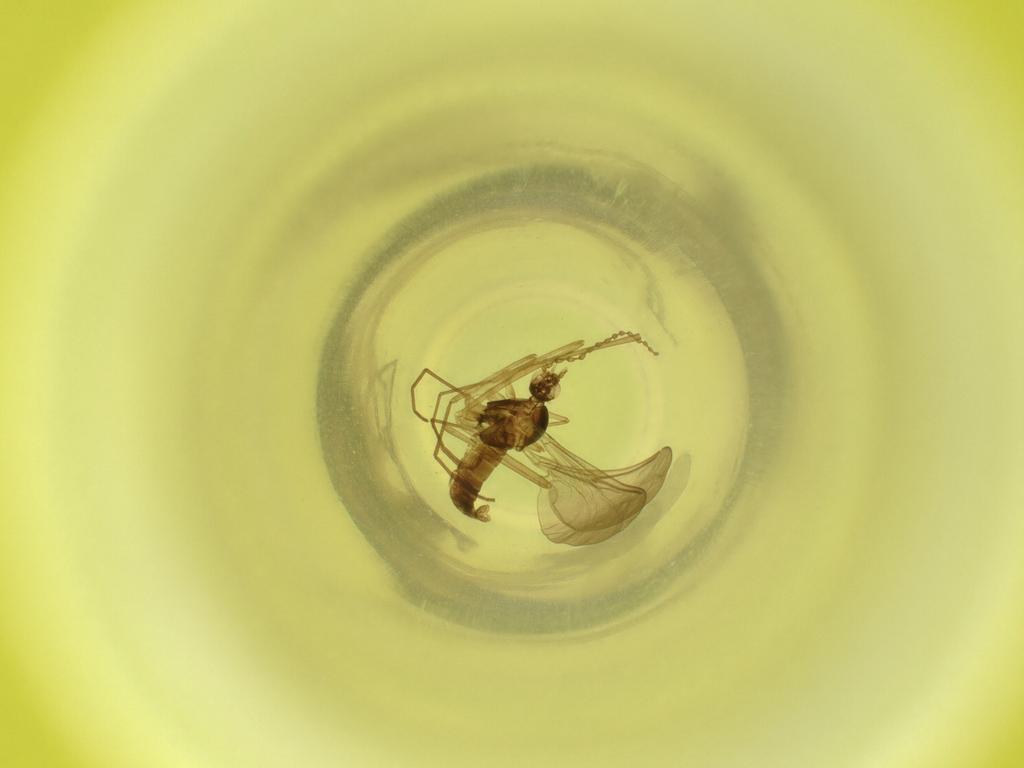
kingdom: Animalia
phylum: Arthropoda
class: Insecta
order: Diptera
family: Cecidomyiidae
